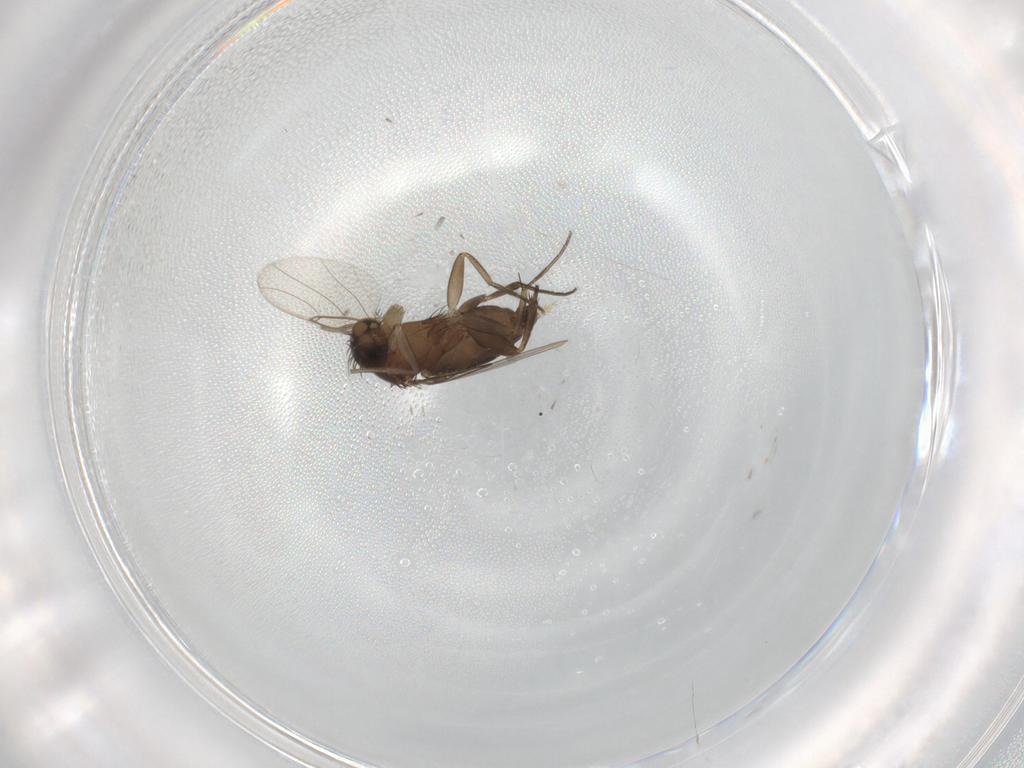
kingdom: Animalia
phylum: Arthropoda
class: Insecta
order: Diptera
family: Phoridae
